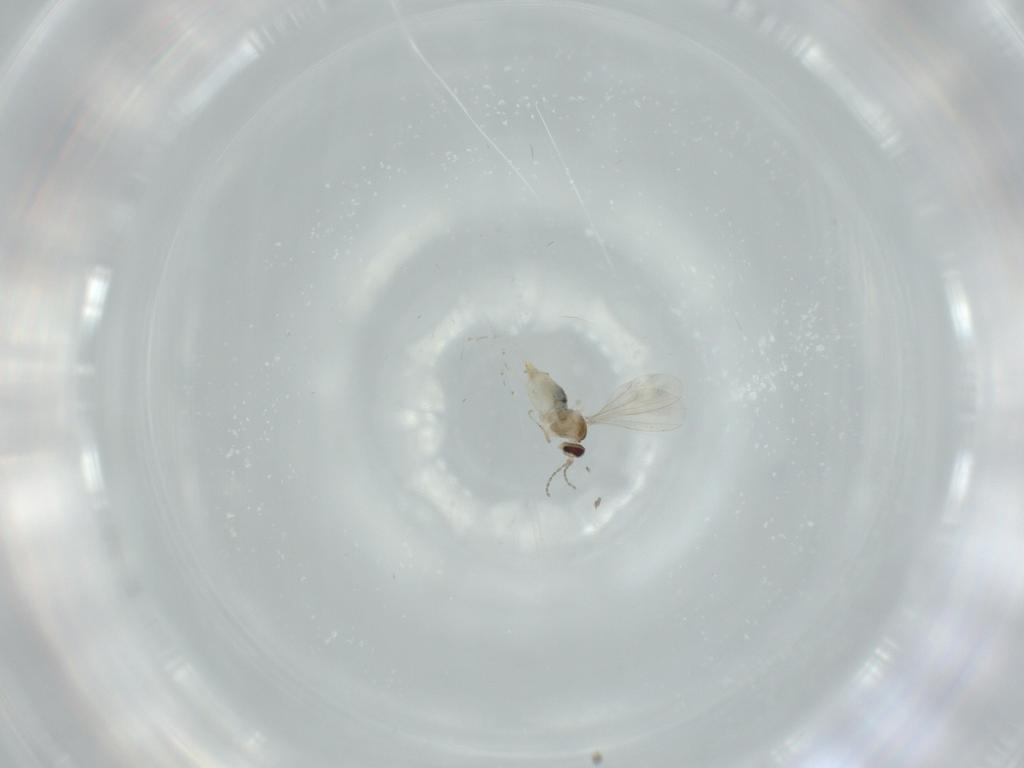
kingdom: Animalia
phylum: Arthropoda
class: Insecta
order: Diptera
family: Cecidomyiidae
